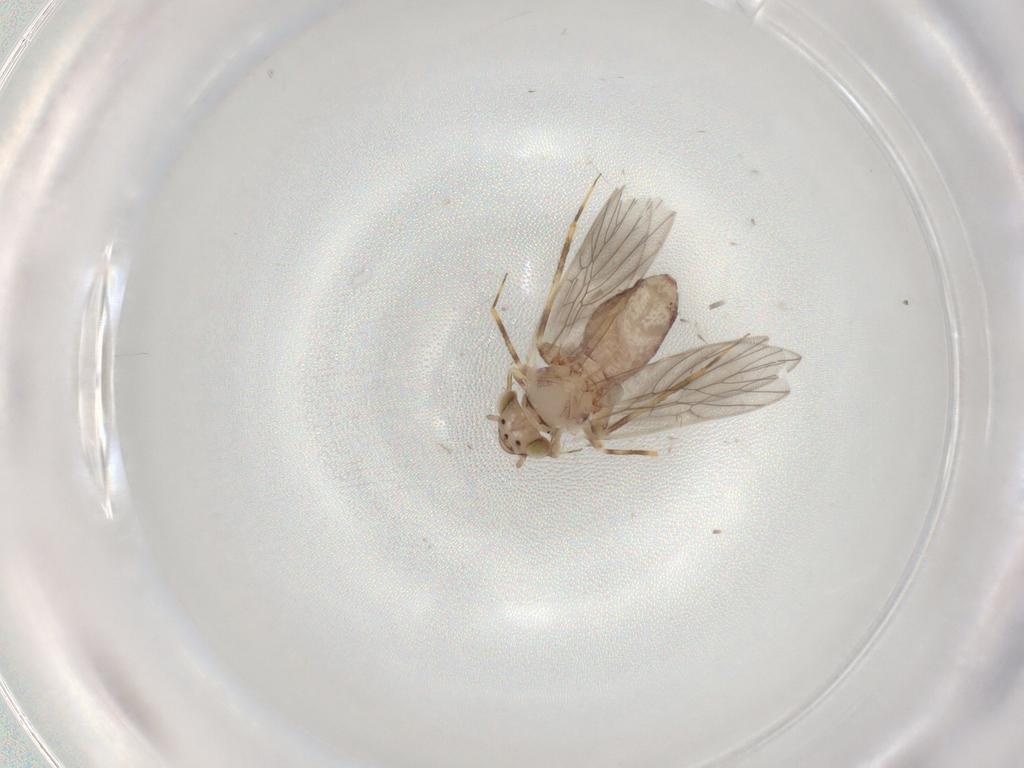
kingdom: Animalia
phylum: Arthropoda
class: Insecta
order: Psocodea
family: Lepidopsocidae
